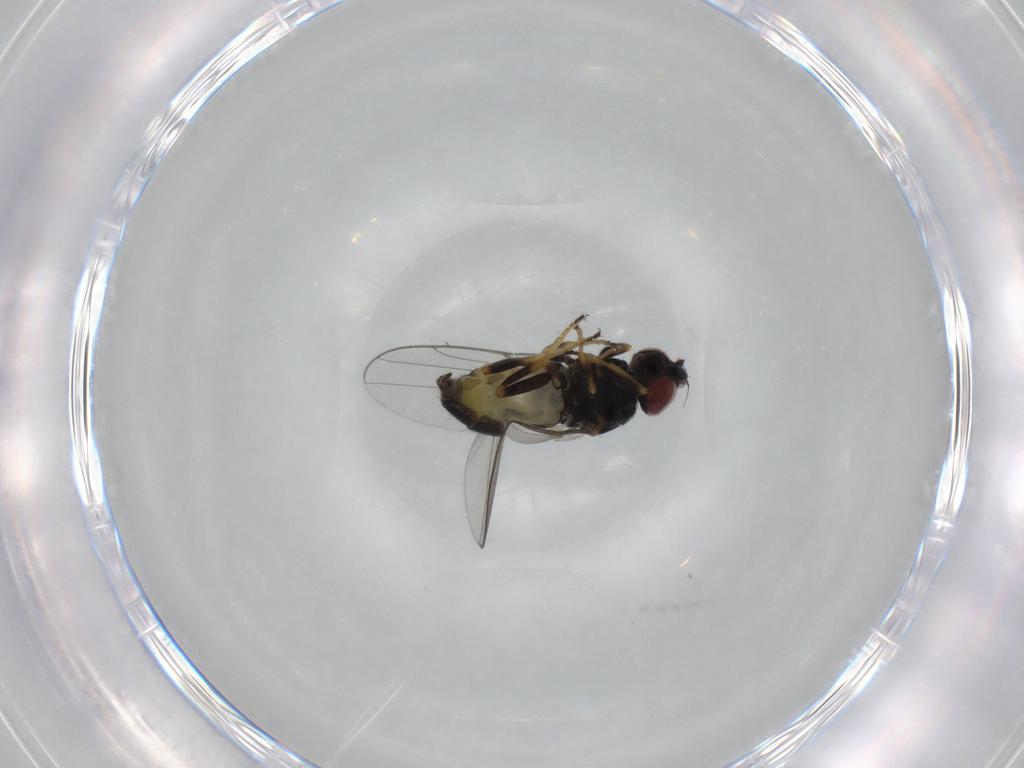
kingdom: Animalia
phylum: Arthropoda
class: Insecta
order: Diptera
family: Chloropidae
